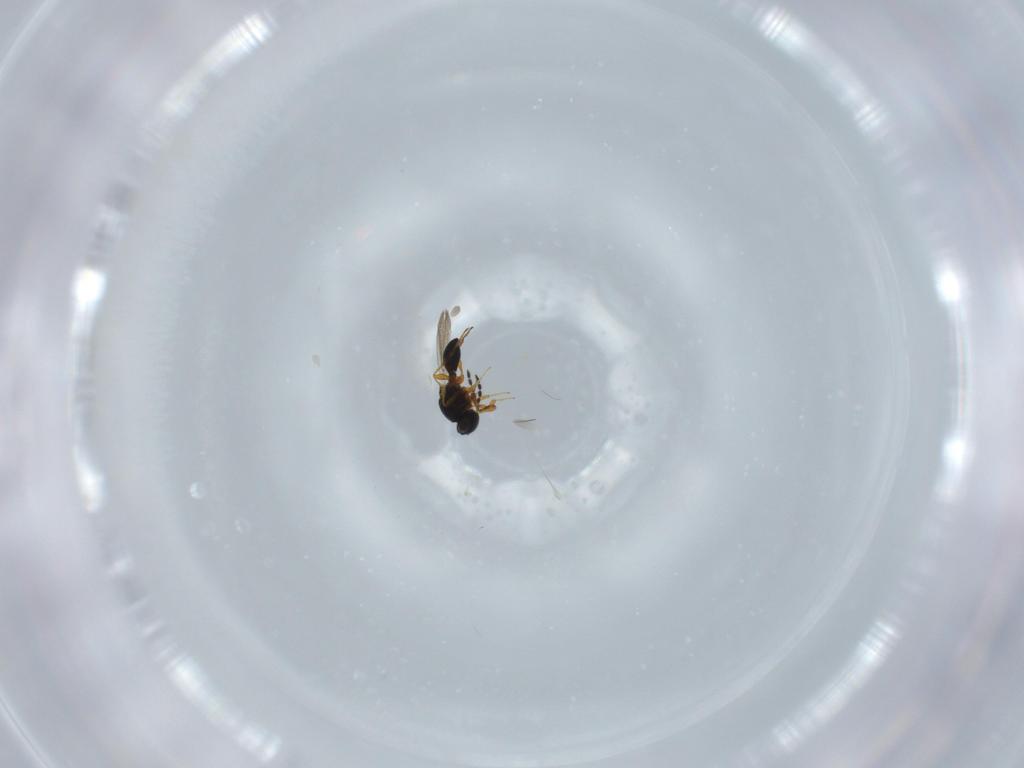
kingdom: Animalia
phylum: Arthropoda
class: Insecta
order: Hymenoptera
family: Platygastridae
